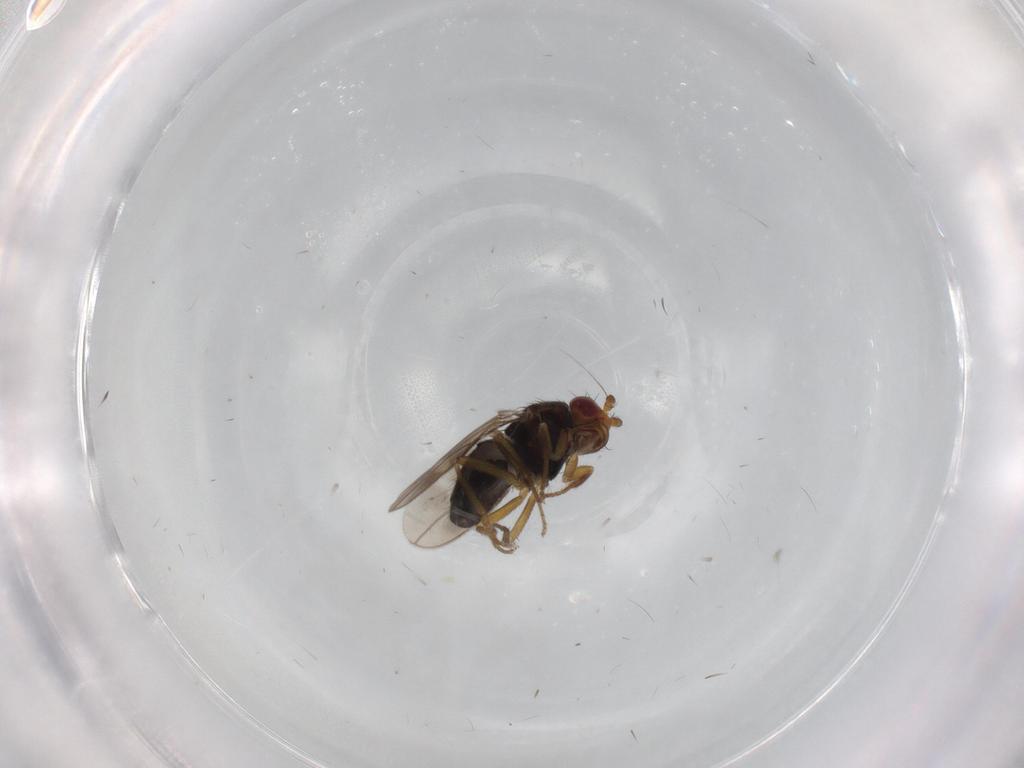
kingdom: Animalia
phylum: Arthropoda
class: Insecta
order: Diptera
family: Sphaeroceridae
